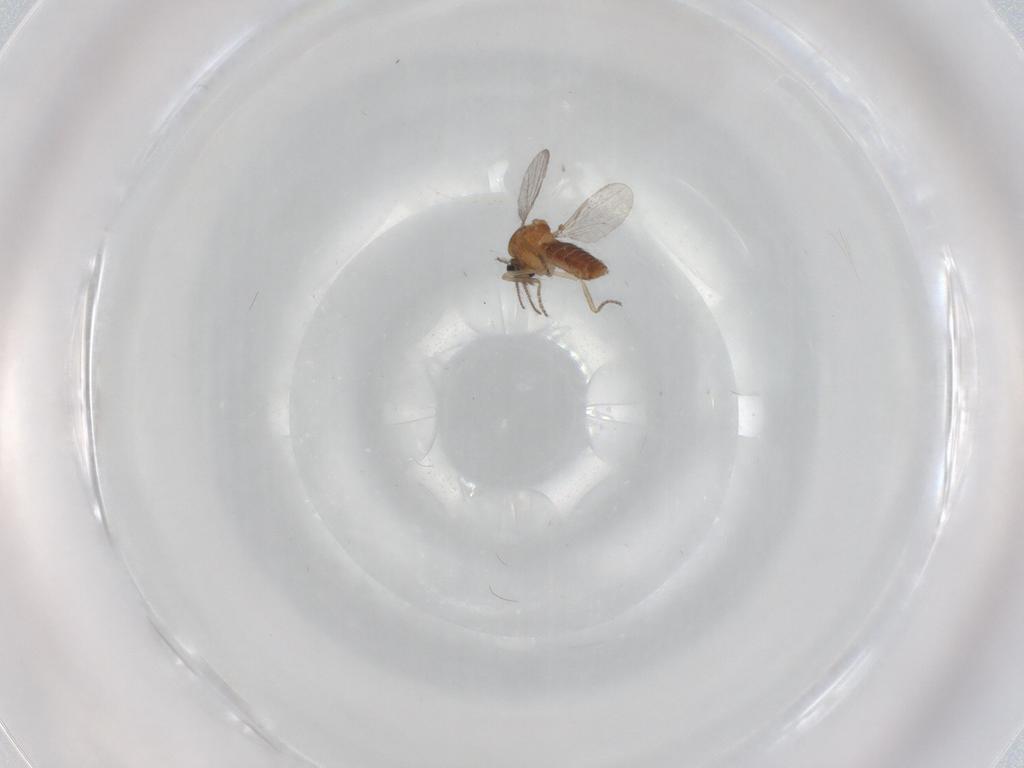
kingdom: Animalia
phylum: Arthropoda
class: Insecta
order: Diptera
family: Ceratopogonidae
